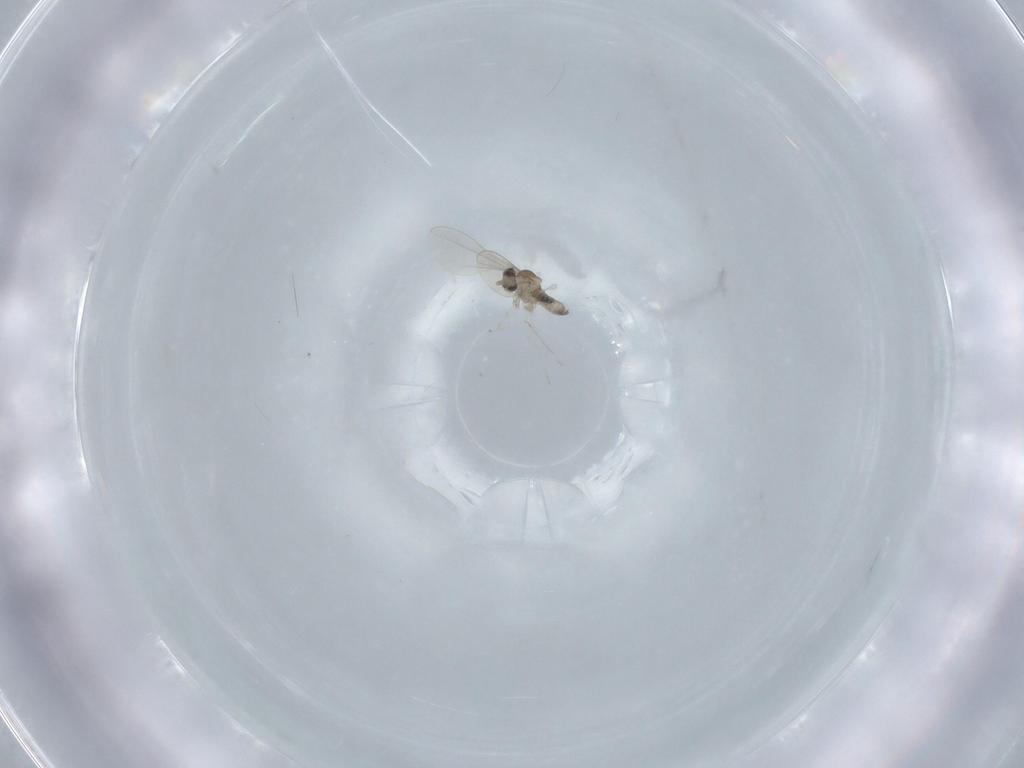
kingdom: Animalia
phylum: Arthropoda
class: Insecta
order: Diptera
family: Cecidomyiidae
